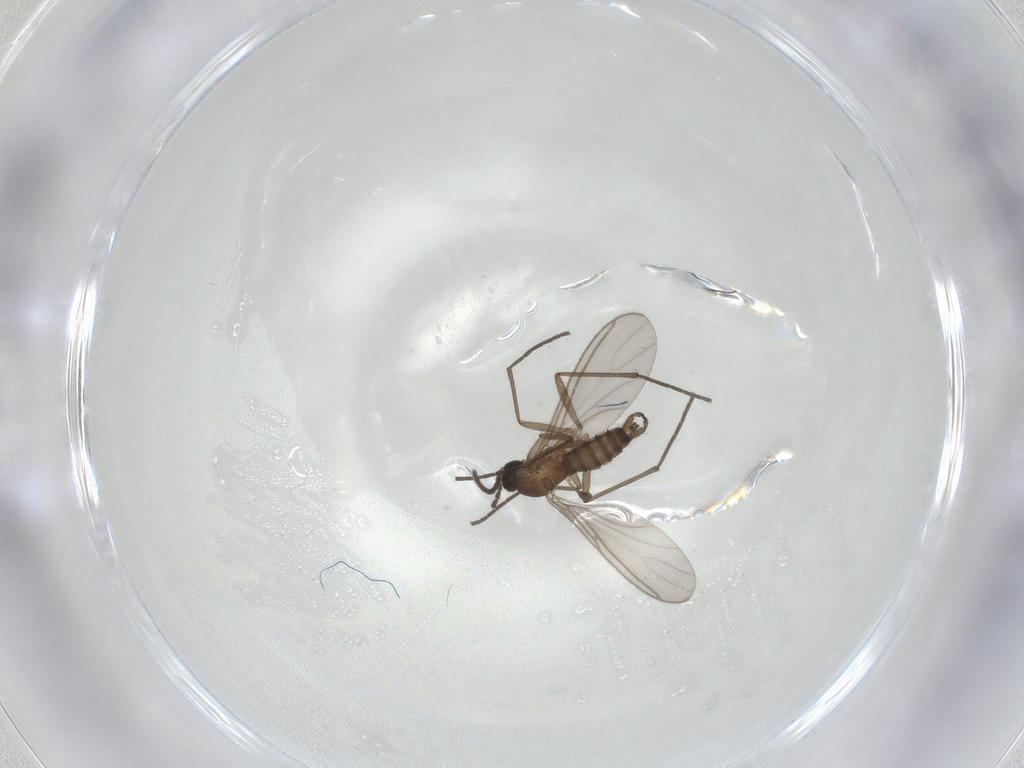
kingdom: Animalia
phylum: Arthropoda
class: Insecta
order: Diptera
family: Sciaridae
